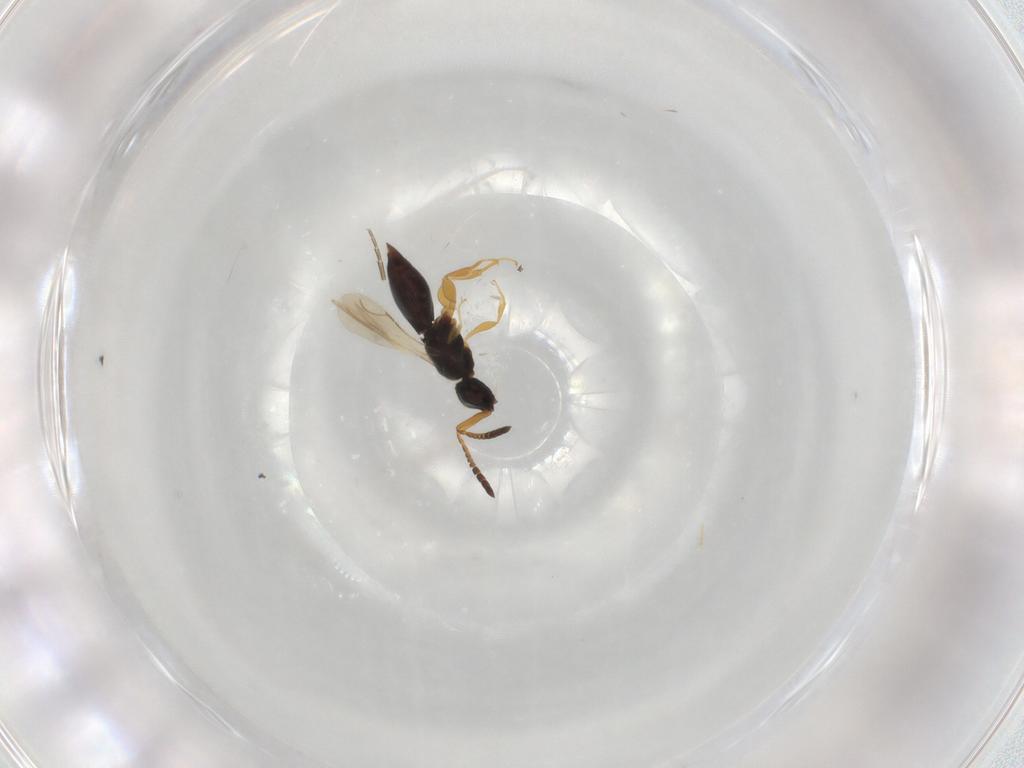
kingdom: Animalia
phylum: Arthropoda
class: Insecta
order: Hymenoptera
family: Ceraphronidae
